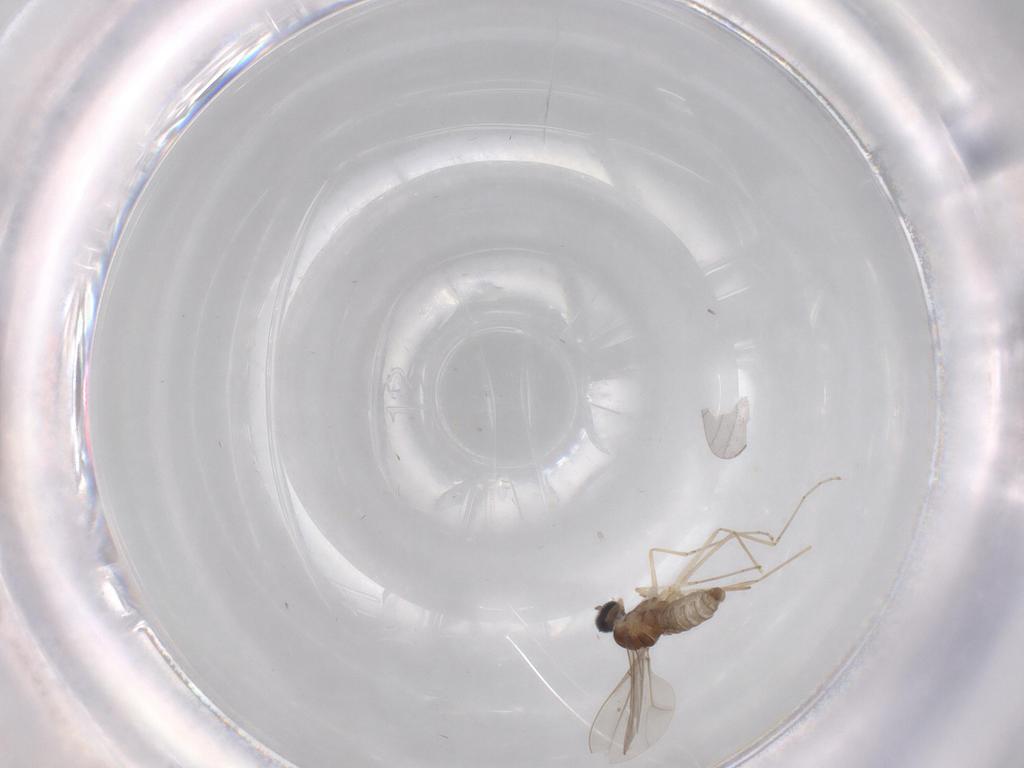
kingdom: Animalia
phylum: Arthropoda
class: Insecta
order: Diptera
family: Cecidomyiidae
